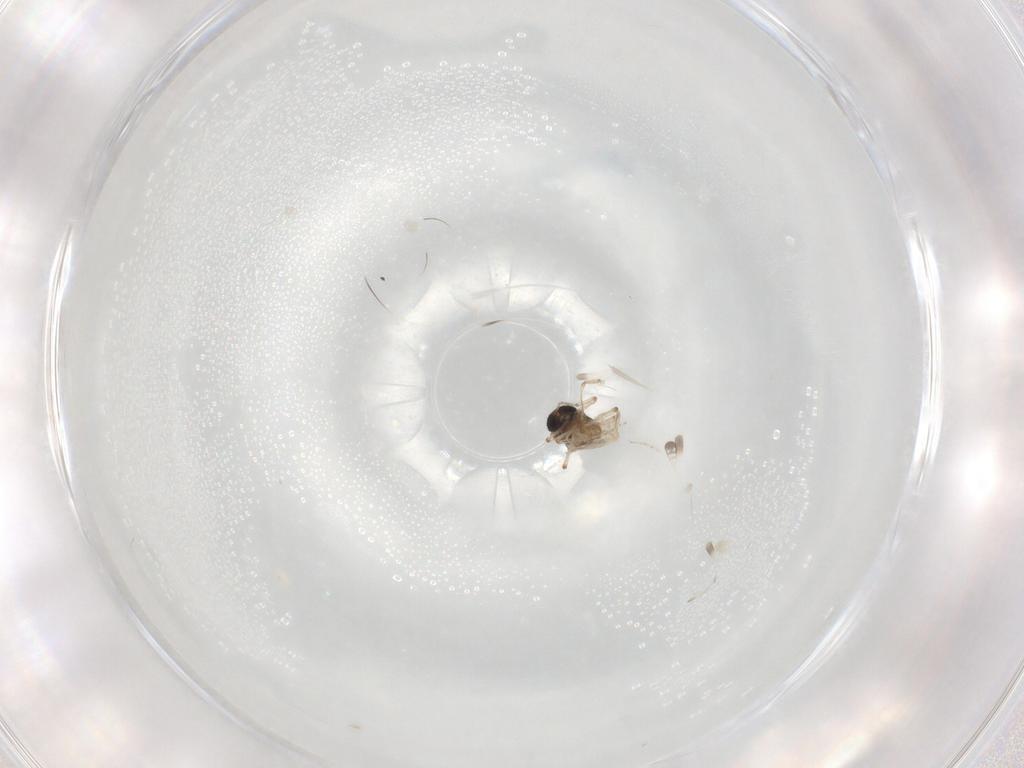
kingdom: Animalia
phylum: Arthropoda
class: Insecta
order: Diptera
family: Ceratopogonidae
